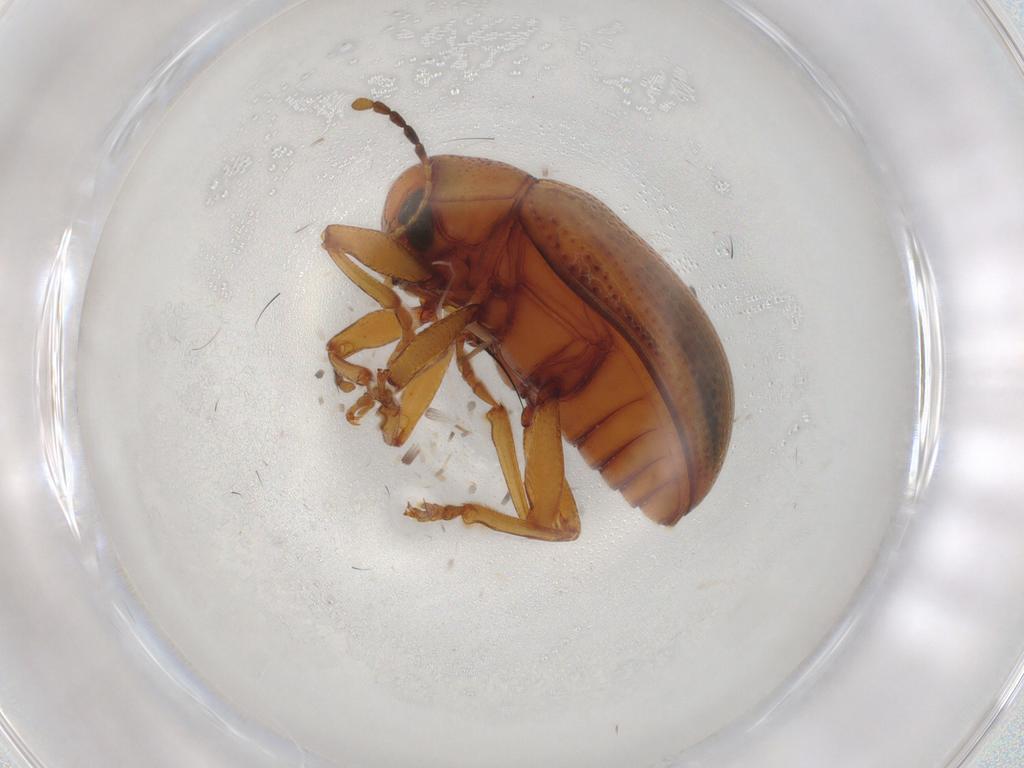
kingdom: Animalia
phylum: Arthropoda
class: Insecta
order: Coleoptera
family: Chrysomelidae
